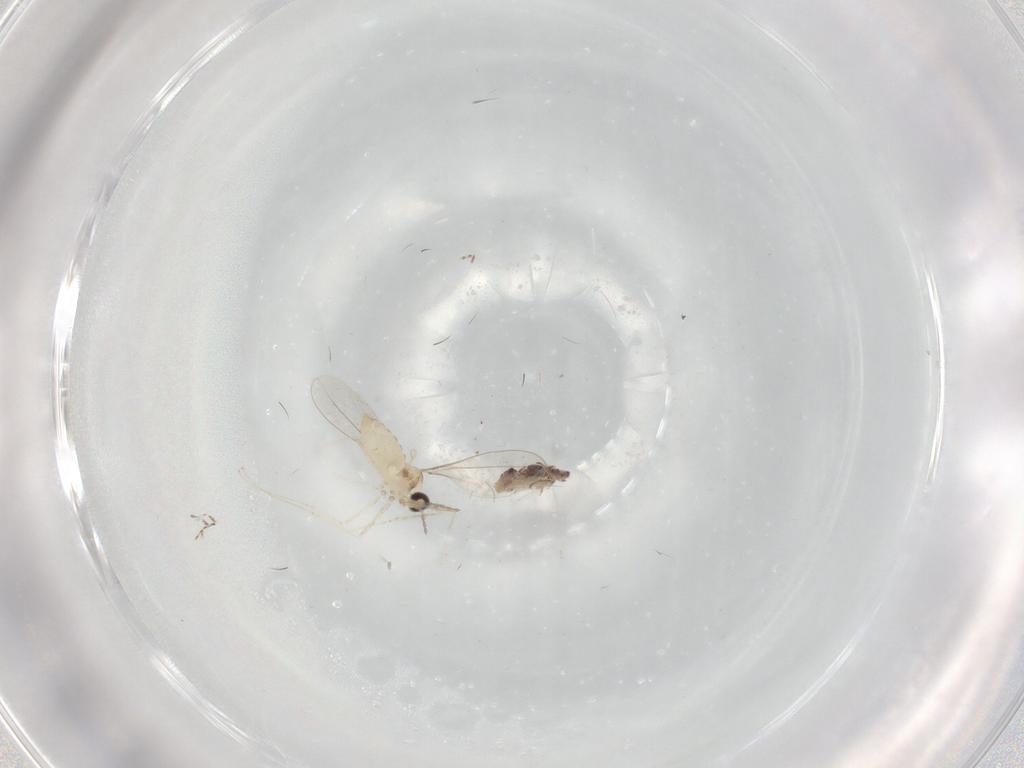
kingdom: Animalia
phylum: Arthropoda
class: Collembola
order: Symphypleona
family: Bourletiellidae
